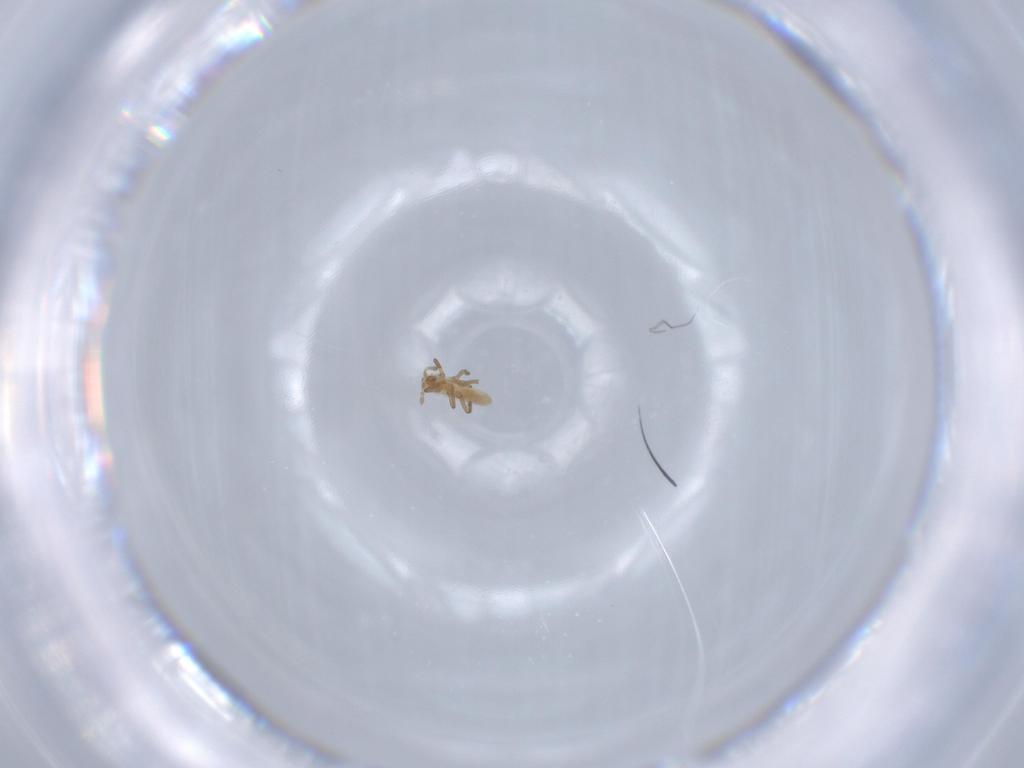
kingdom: Animalia
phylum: Arthropoda
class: Insecta
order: Hemiptera
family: Aphididae
